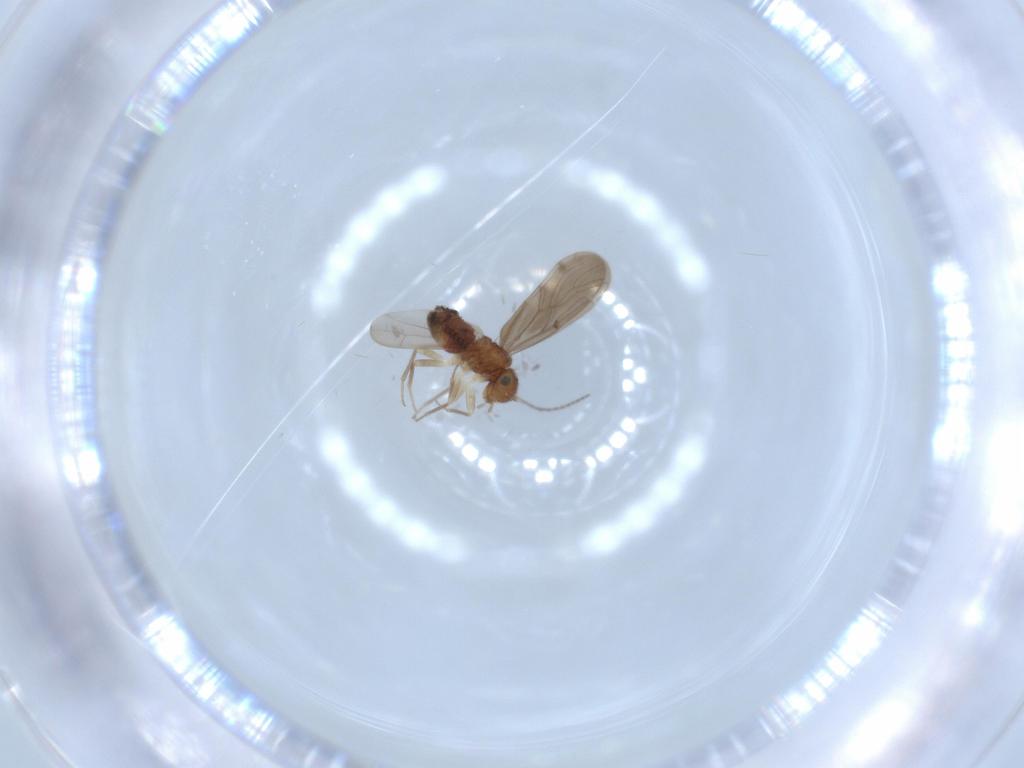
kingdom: Animalia
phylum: Arthropoda
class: Insecta
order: Psocodea
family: Ectopsocidae
